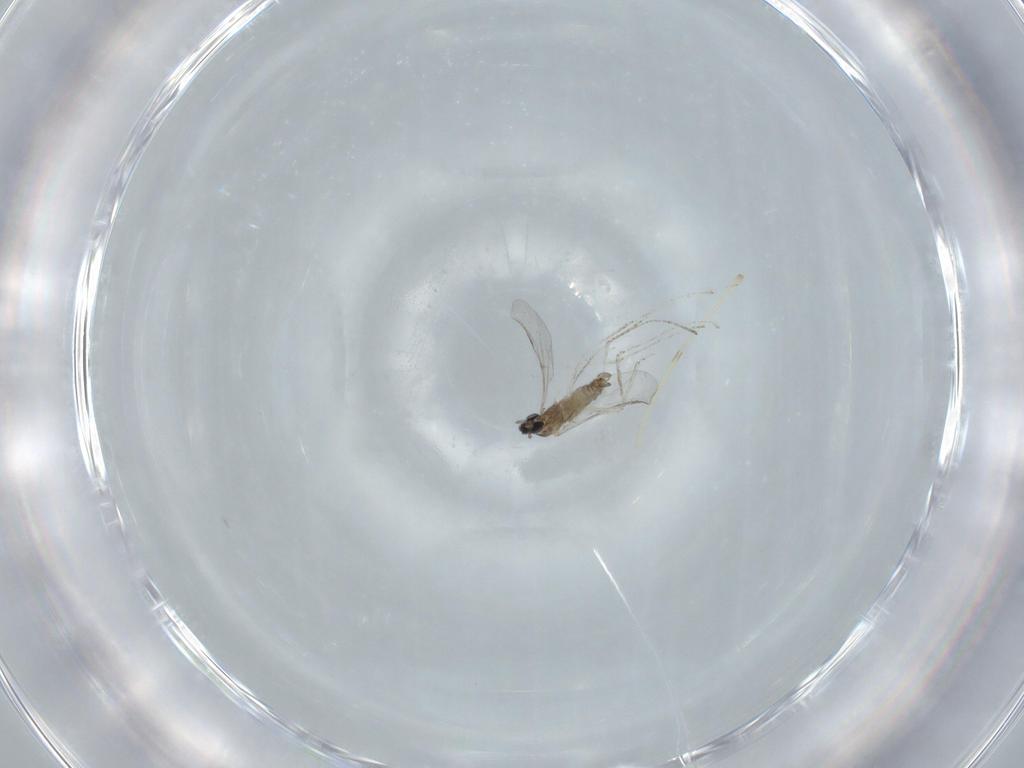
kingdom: Animalia
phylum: Arthropoda
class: Insecta
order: Diptera
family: Cecidomyiidae
